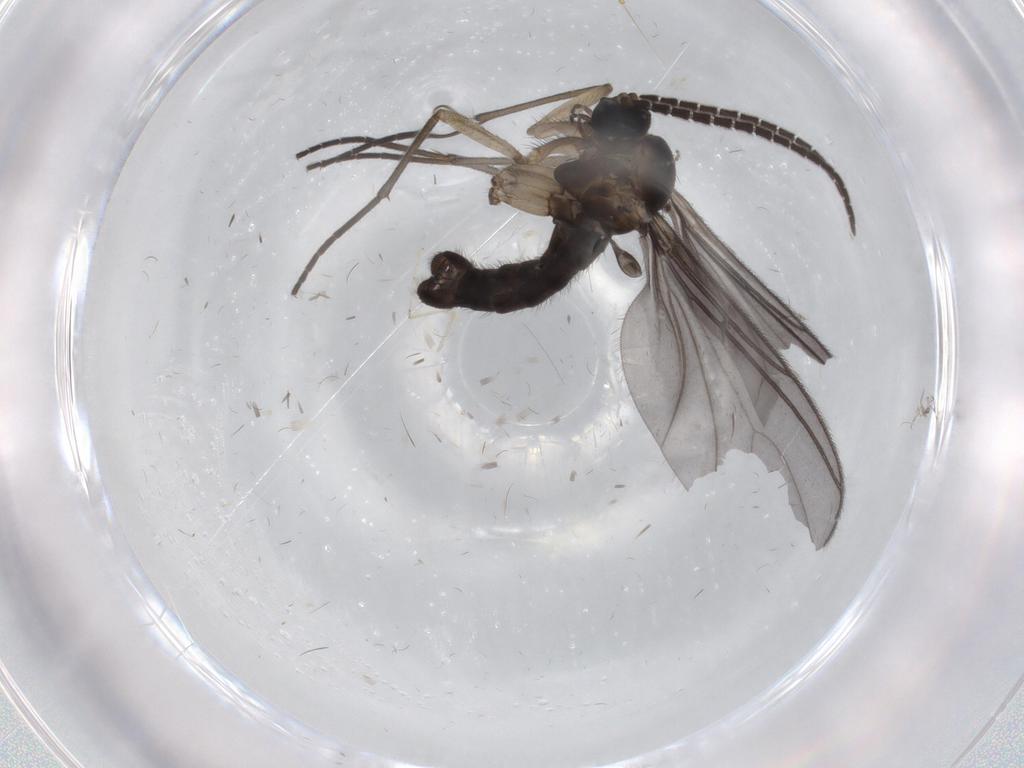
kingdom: Animalia
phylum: Arthropoda
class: Insecta
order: Diptera
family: Sciaridae
